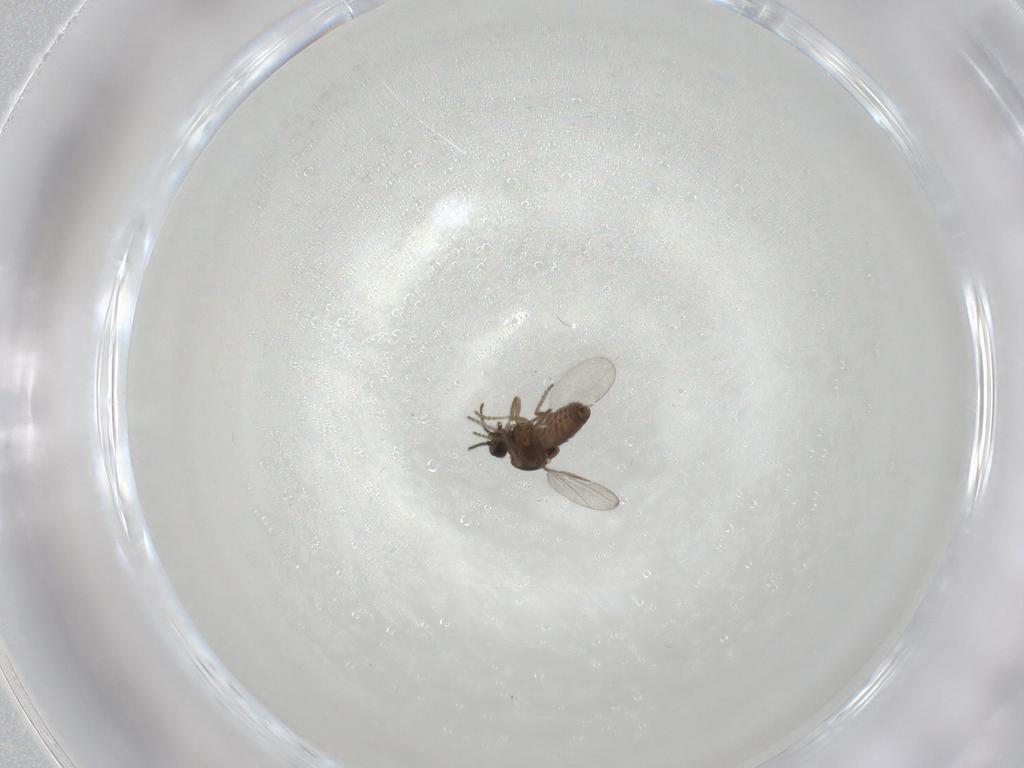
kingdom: Animalia
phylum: Arthropoda
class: Insecta
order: Diptera
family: Ceratopogonidae
